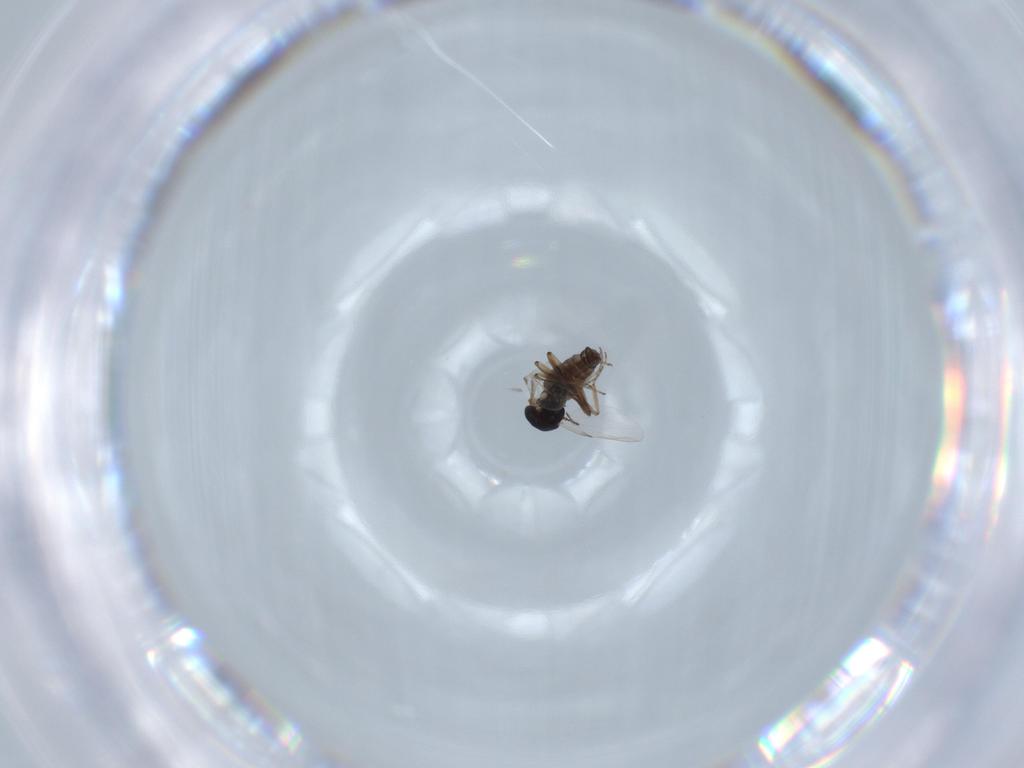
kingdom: Animalia
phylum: Arthropoda
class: Insecta
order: Diptera
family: Ceratopogonidae
